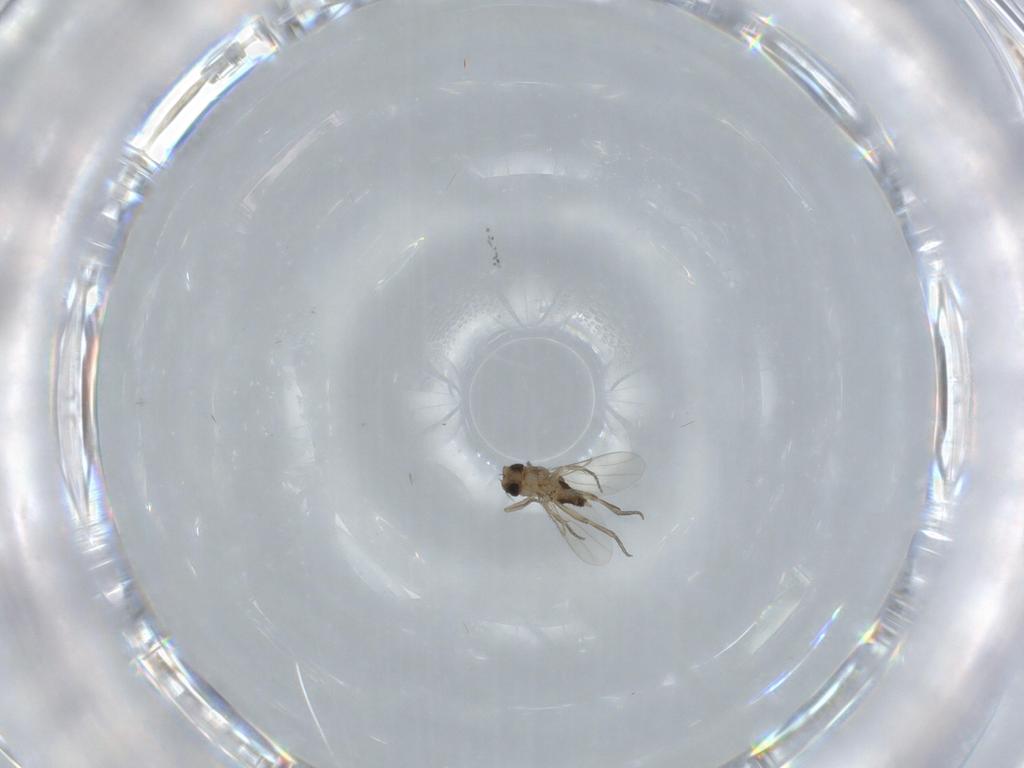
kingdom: Animalia
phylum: Arthropoda
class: Insecta
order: Diptera
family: Phoridae
